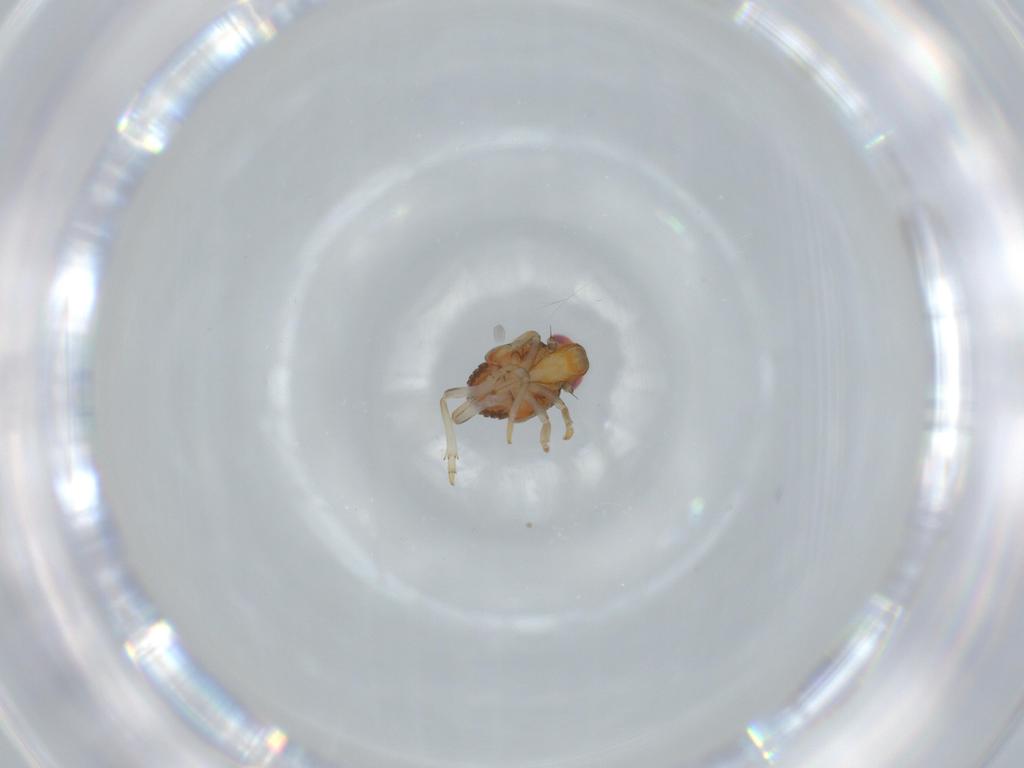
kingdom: Animalia
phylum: Arthropoda
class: Insecta
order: Hemiptera
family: Issidae
